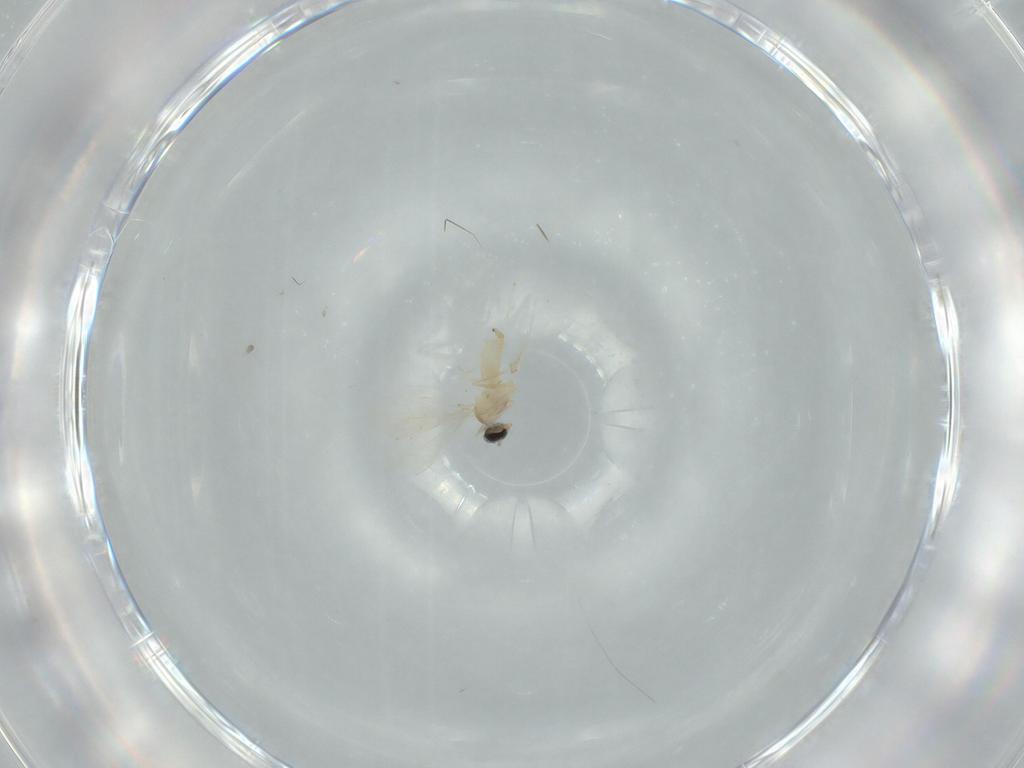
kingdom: Animalia
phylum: Arthropoda
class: Insecta
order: Diptera
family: Cecidomyiidae
